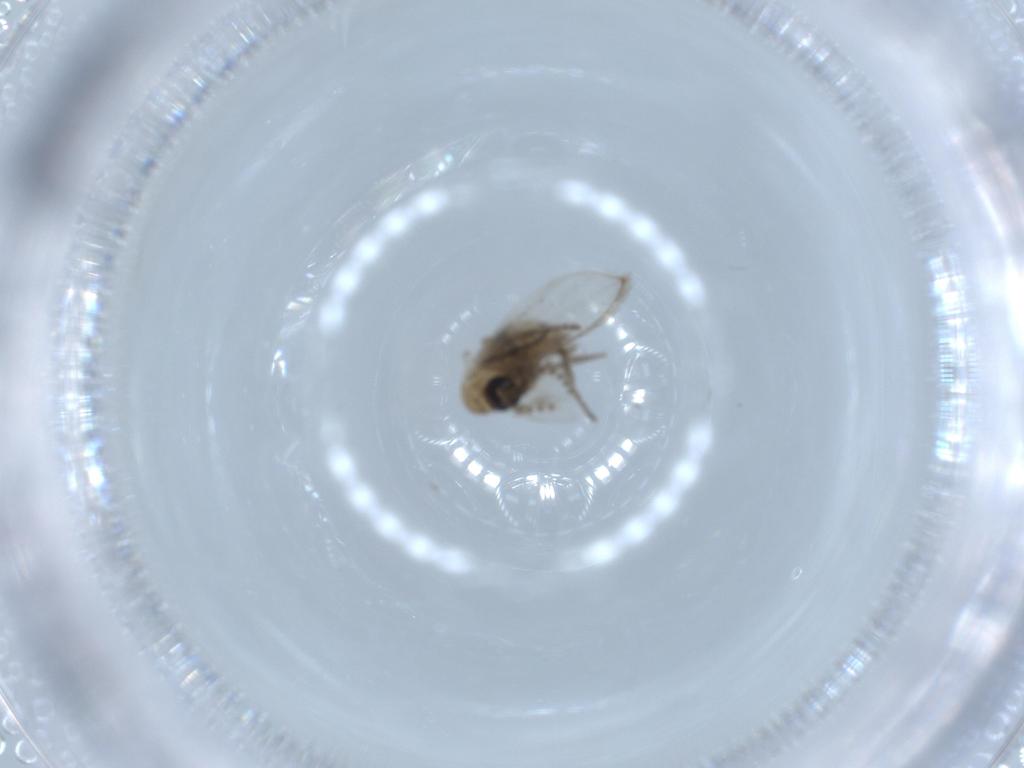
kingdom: Animalia
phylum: Arthropoda
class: Insecta
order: Diptera
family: Psychodidae
